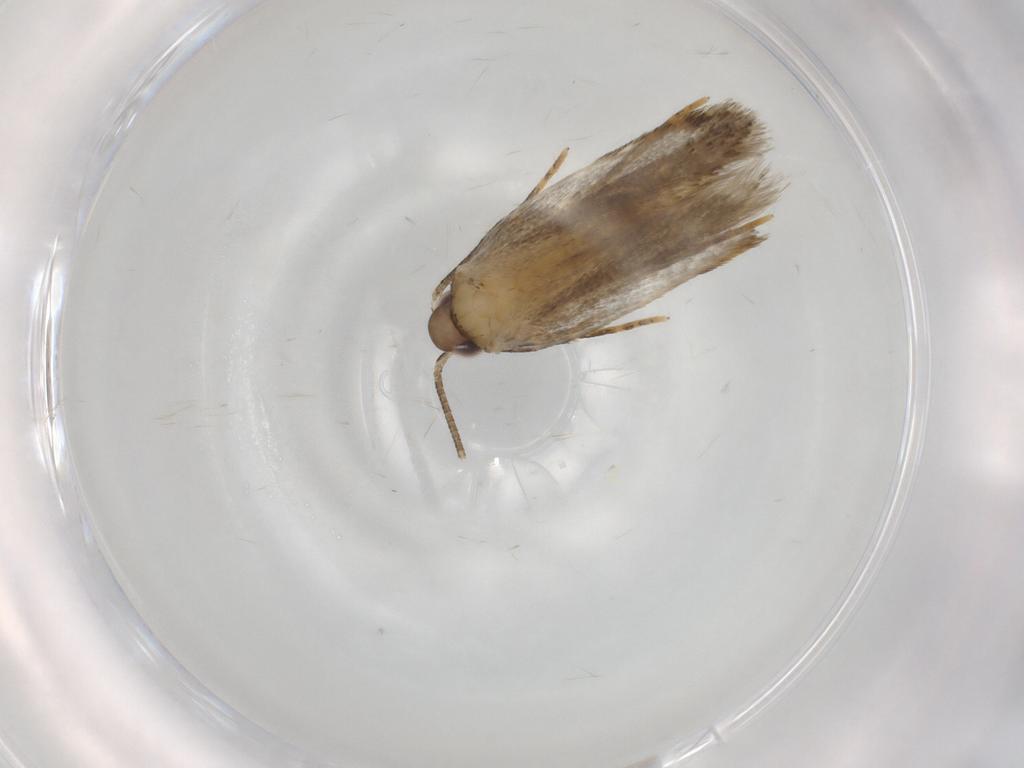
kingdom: Animalia
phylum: Arthropoda
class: Insecta
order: Lepidoptera
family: Autostichidae
